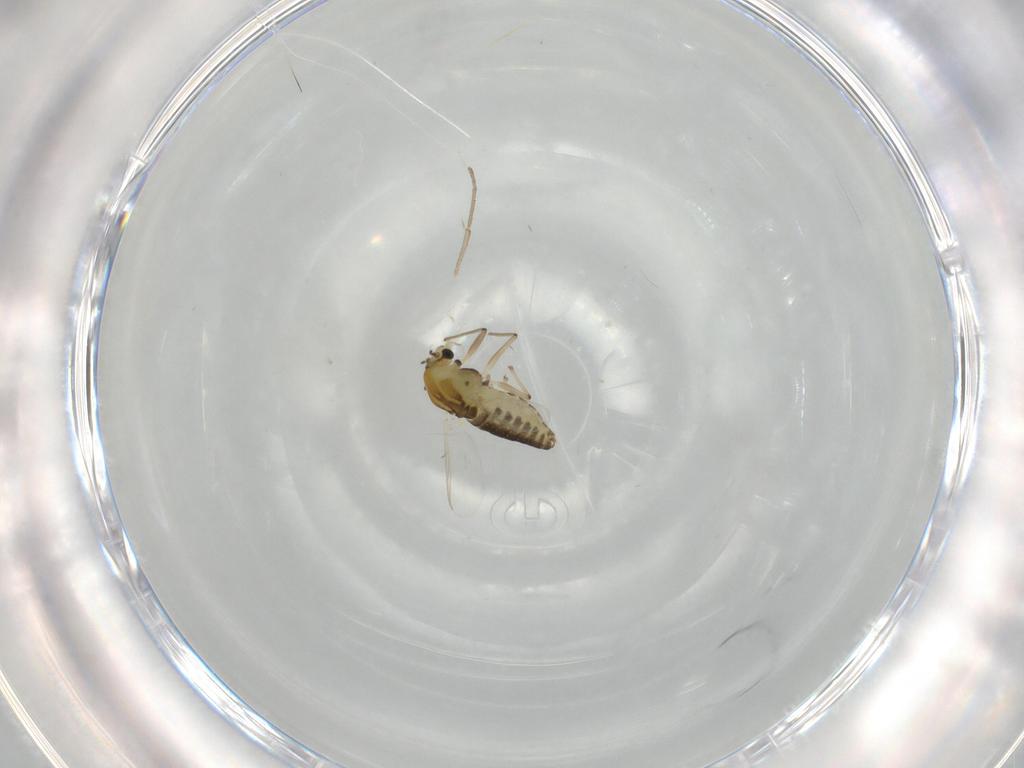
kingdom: Animalia
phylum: Arthropoda
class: Insecta
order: Diptera
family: Chironomidae
